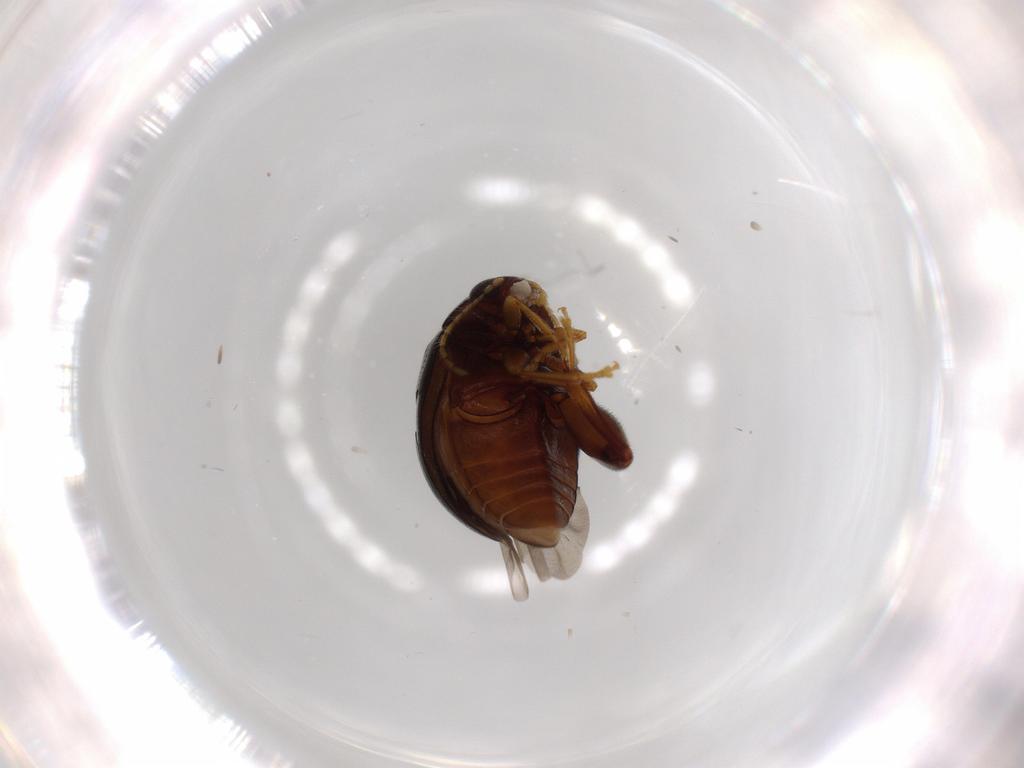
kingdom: Animalia
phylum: Arthropoda
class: Insecta
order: Coleoptera
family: Chrysomelidae
